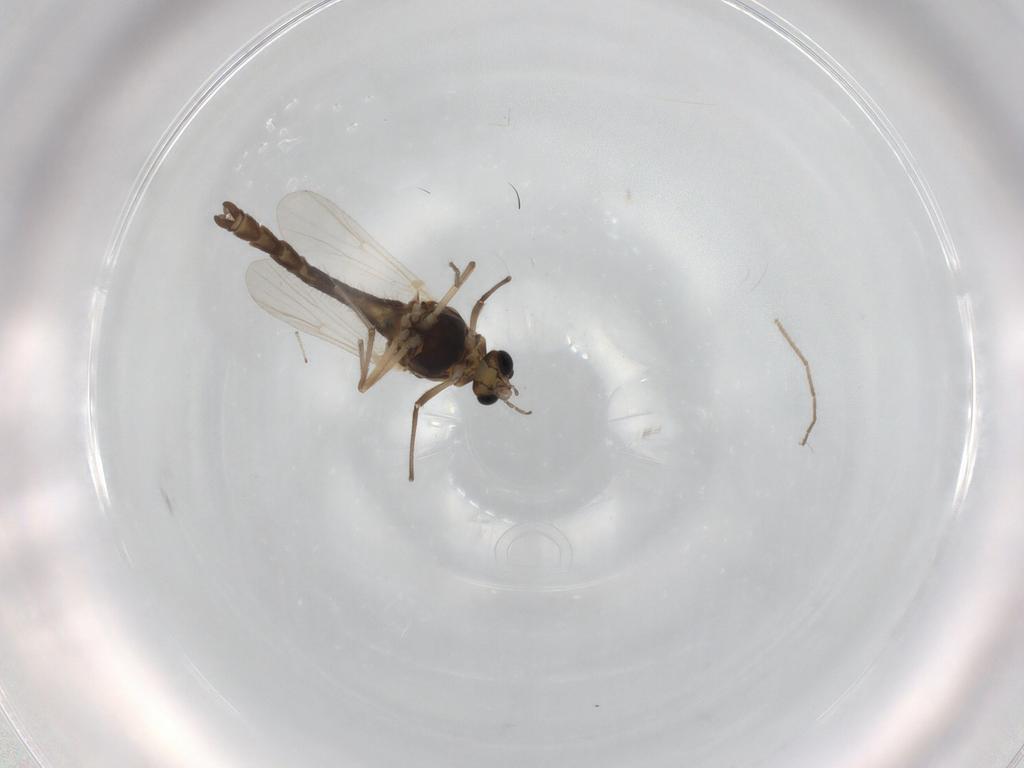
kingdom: Animalia
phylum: Arthropoda
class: Insecta
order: Diptera
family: Chironomidae
